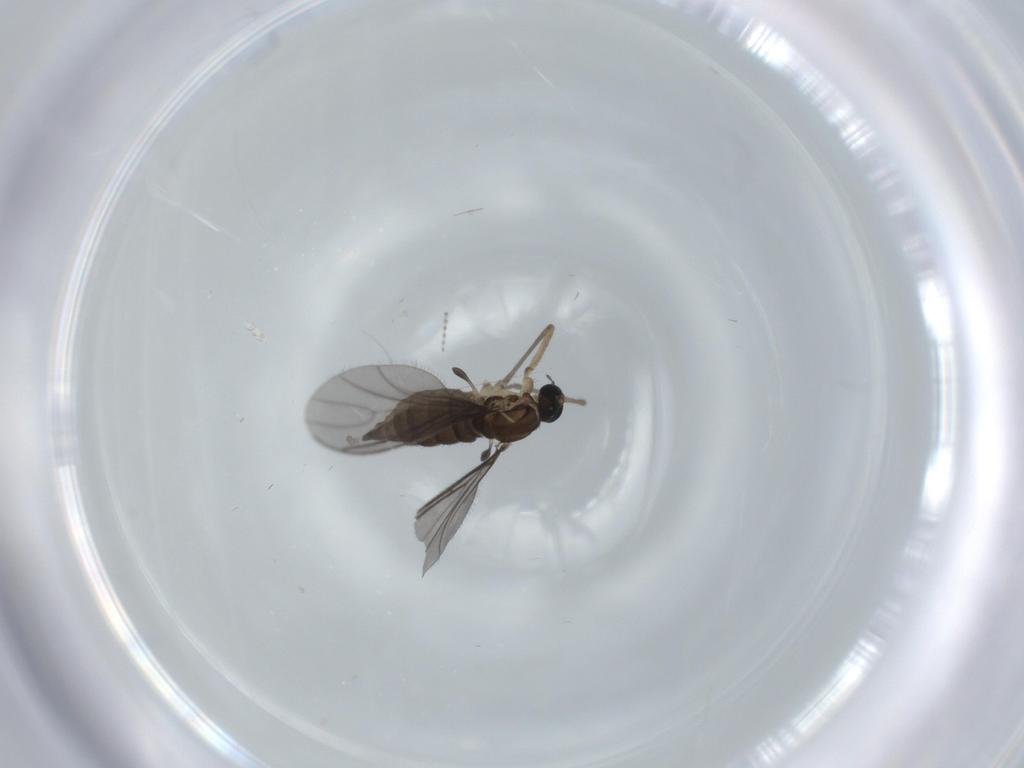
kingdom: Animalia
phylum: Arthropoda
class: Insecta
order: Diptera
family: Sciaridae
